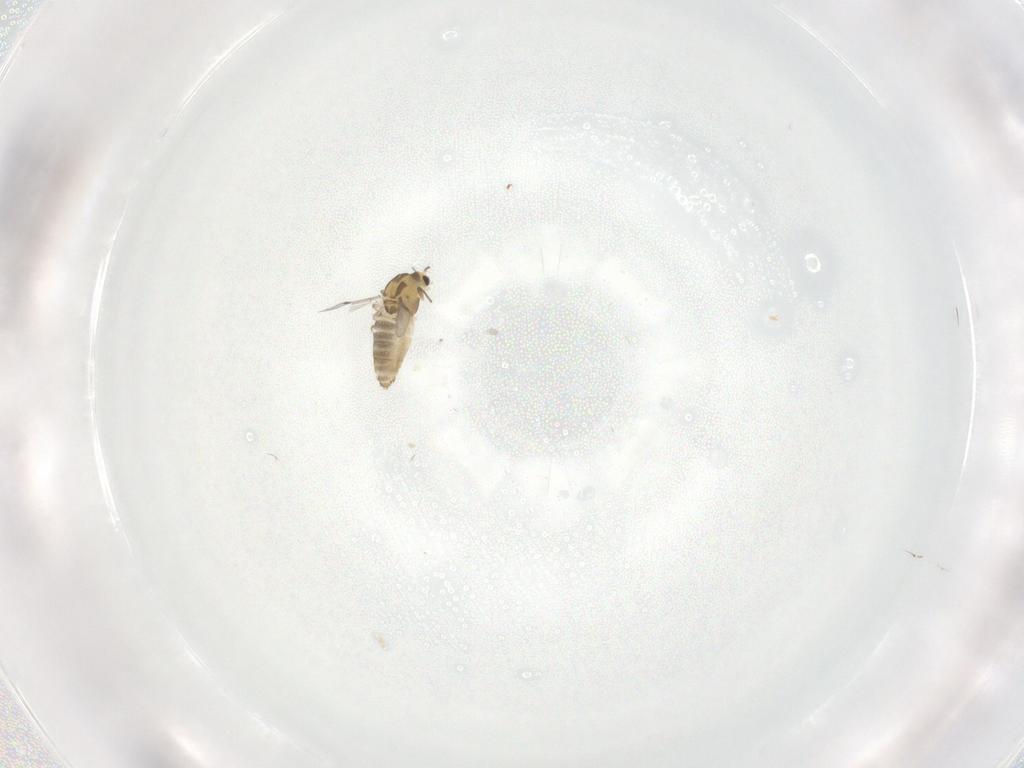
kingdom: Animalia
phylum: Arthropoda
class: Insecta
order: Diptera
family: Chironomidae
